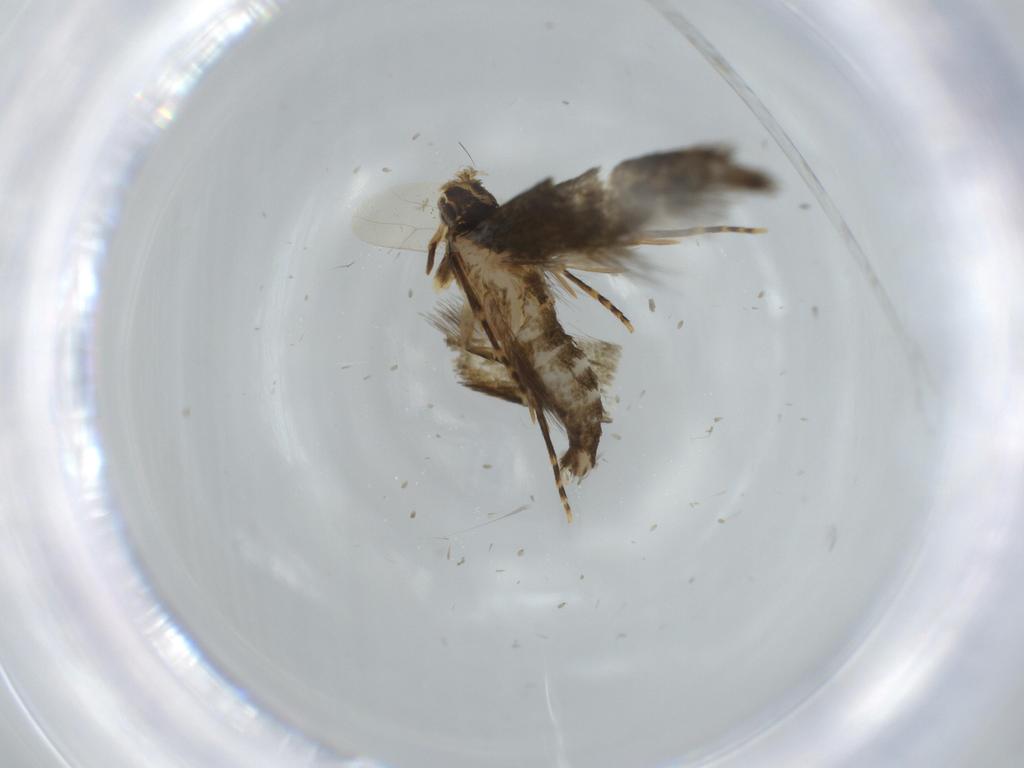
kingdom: Animalia
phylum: Arthropoda
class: Insecta
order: Lepidoptera
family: Tineidae
